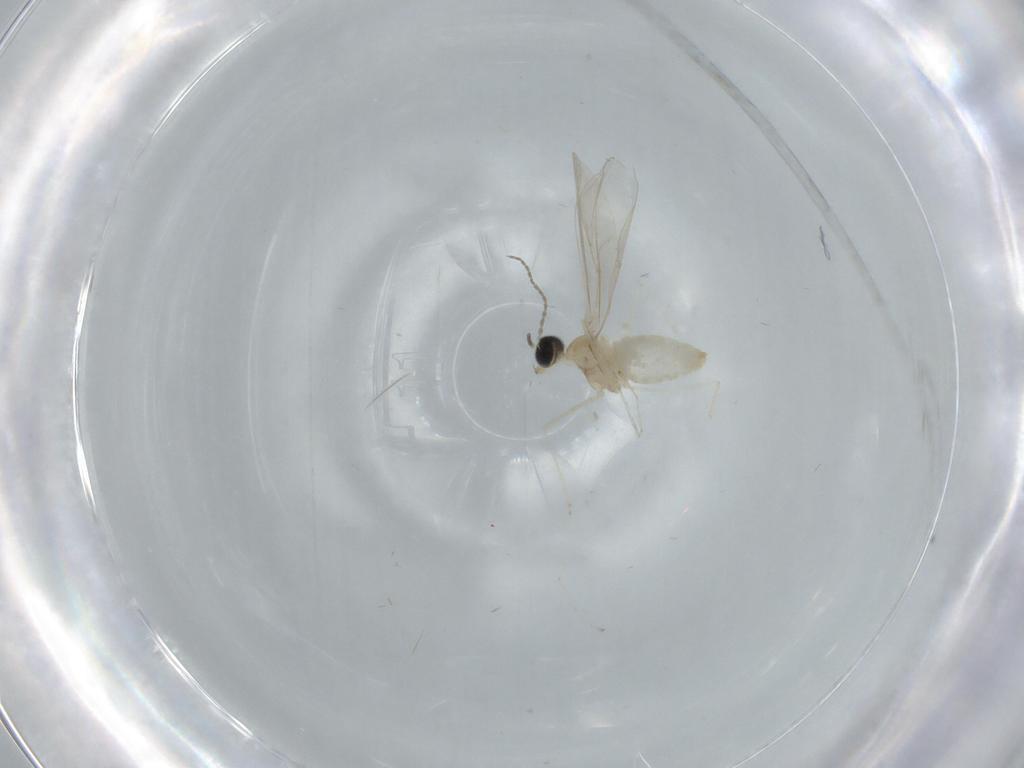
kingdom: Animalia
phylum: Arthropoda
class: Insecta
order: Diptera
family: Cecidomyiidae
